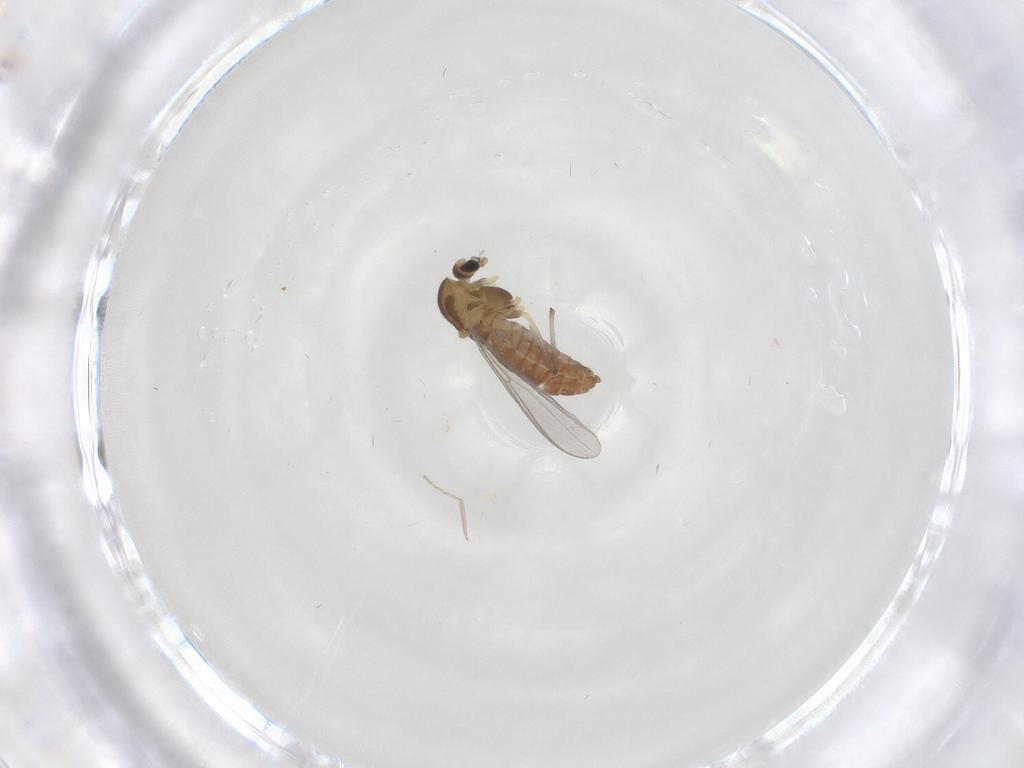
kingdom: Animalia
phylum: Arthropoda
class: Insecta
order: Diptera
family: Chironomidae
